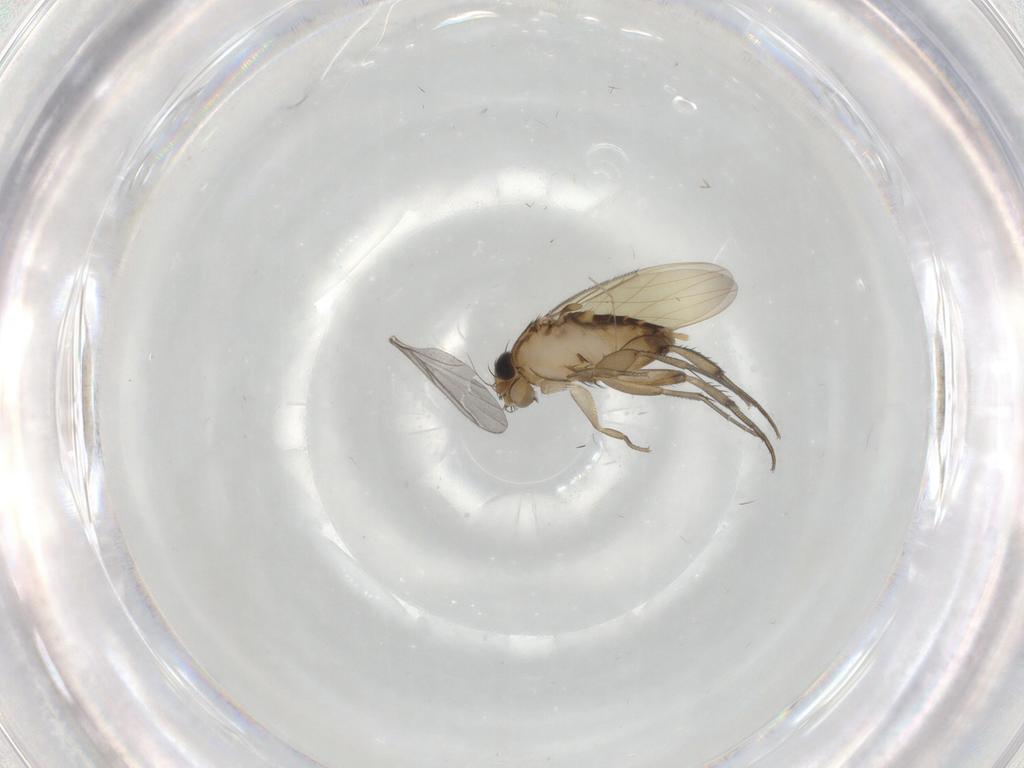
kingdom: Animalia
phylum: Arthropoda
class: Insecta
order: Diptera
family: Phoridae
